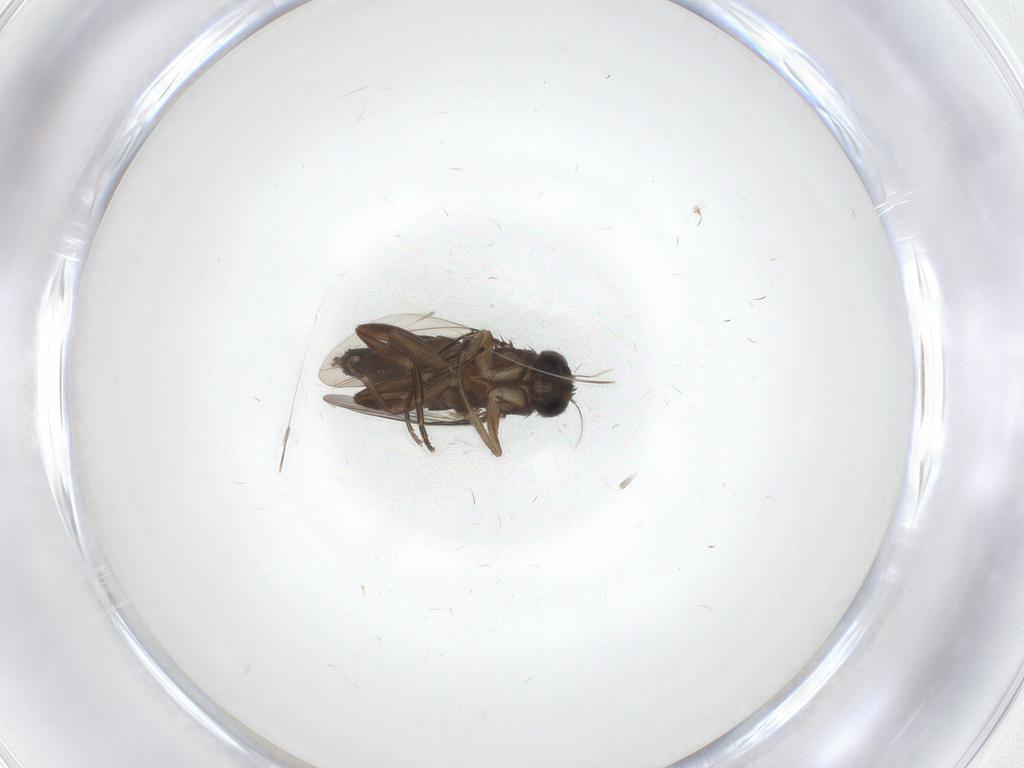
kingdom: Animalia
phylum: Arthropoda
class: Insecta
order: Diptera
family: Phoridae
